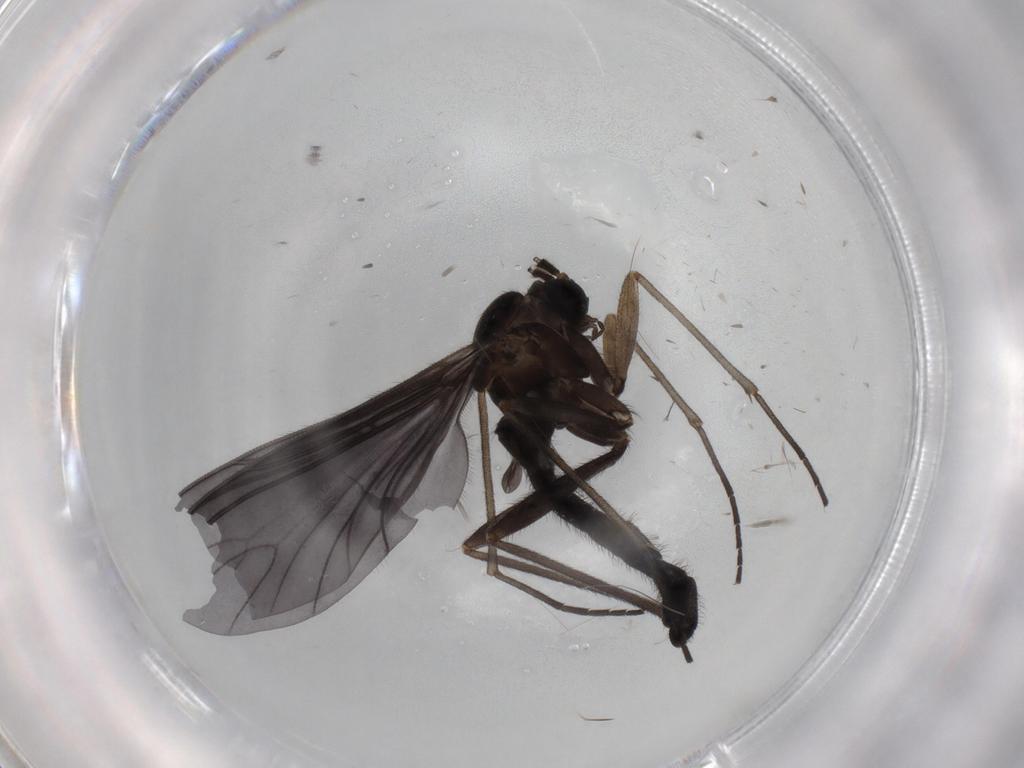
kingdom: Animalia
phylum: Arthropoda
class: Insecta
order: Diptera
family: Sciaridae
